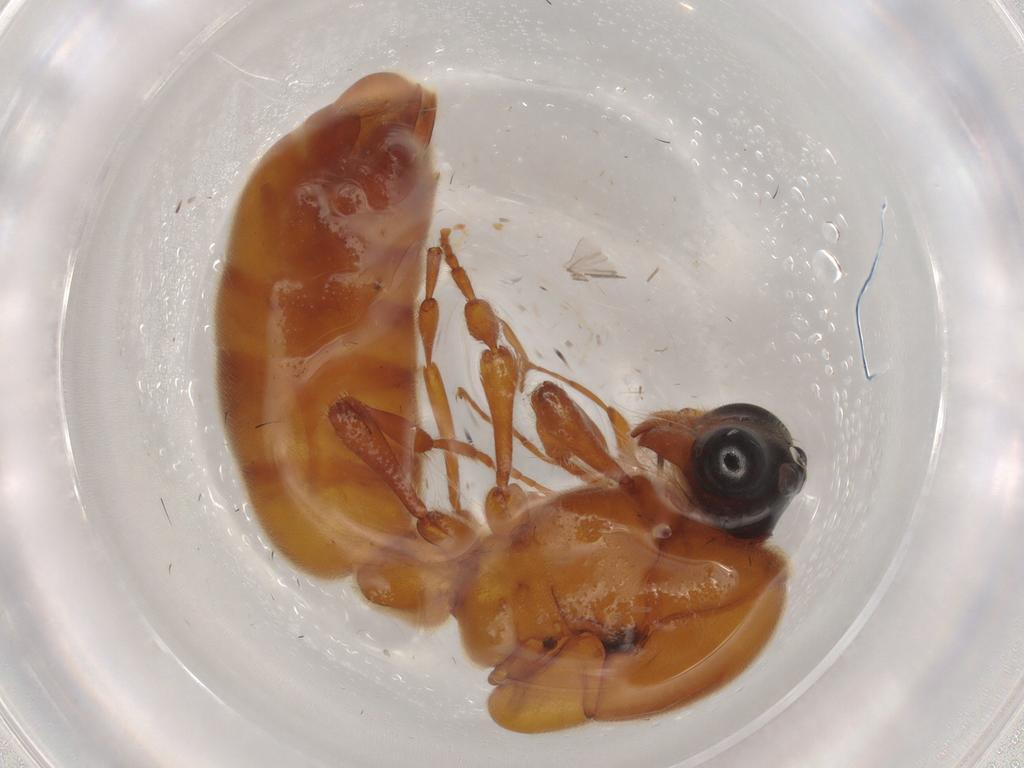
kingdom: Animalia
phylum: Arthropoda
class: Insecta
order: Hymenoptera
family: Formicidae
